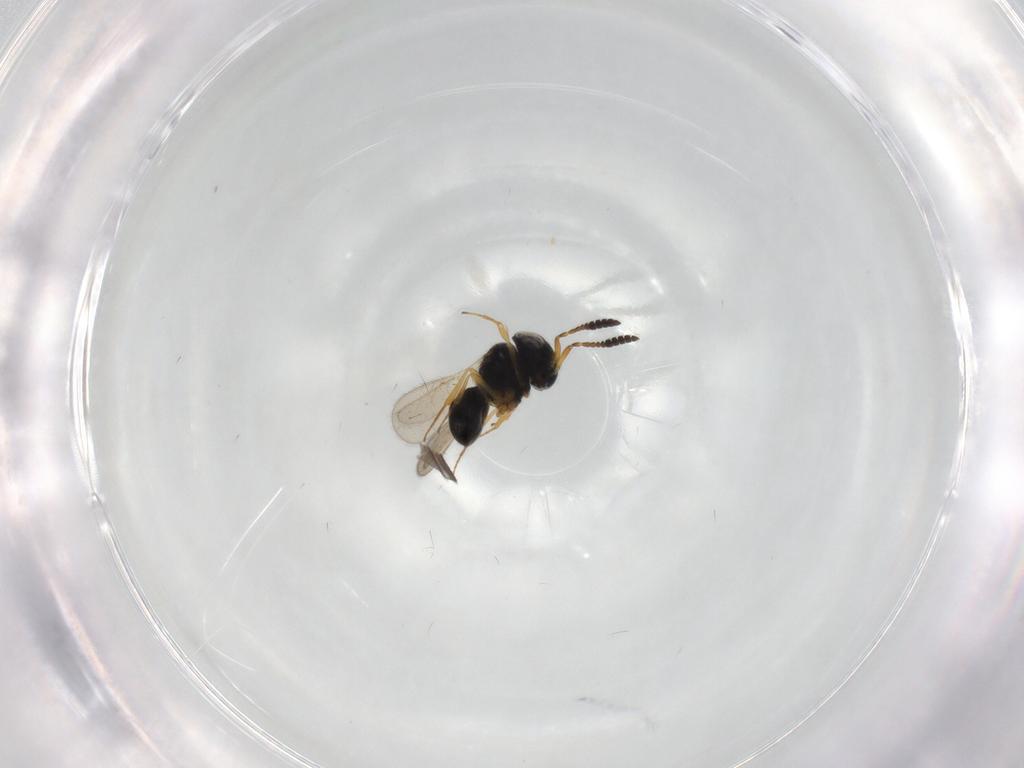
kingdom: Animalia
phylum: Arthropoda
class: Insecta
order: Hymenoptera
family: Scelionidae
